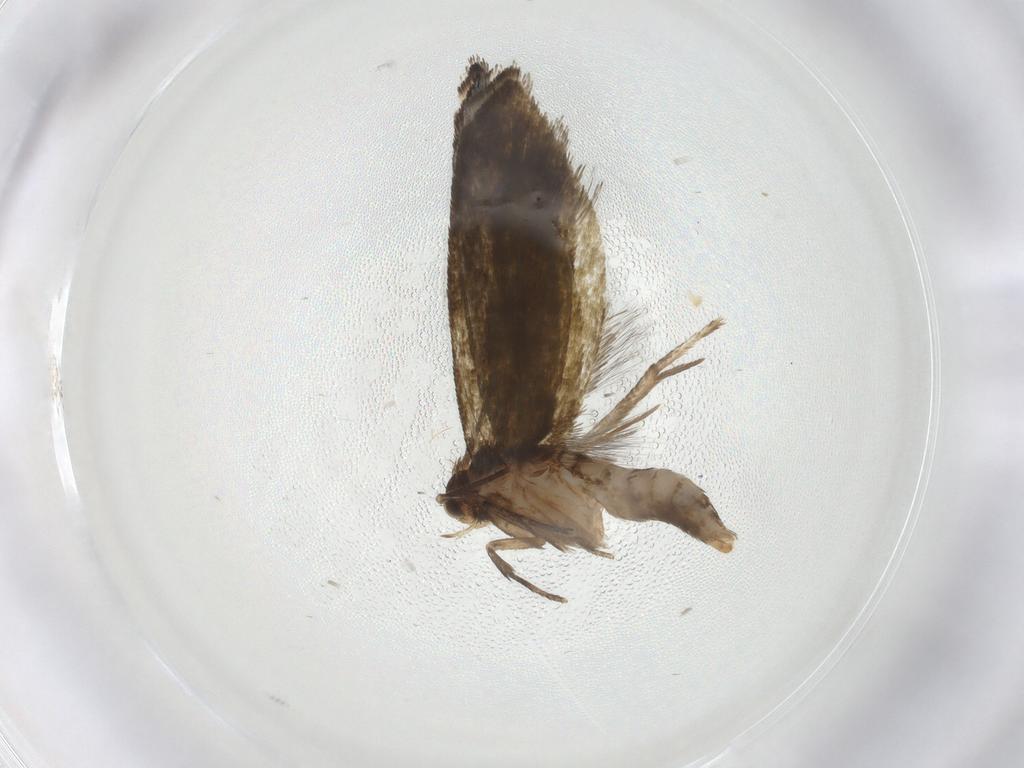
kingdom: Animalia
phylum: Arthropoda
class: Insecta
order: Lepidoptera
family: Tineidae
